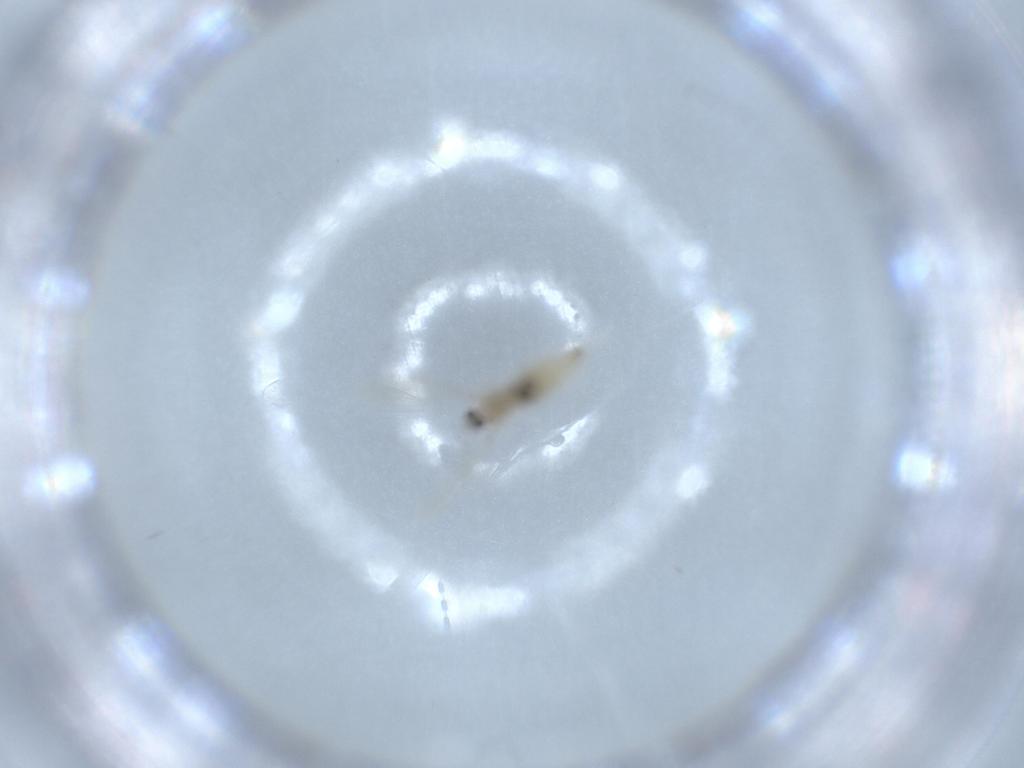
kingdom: Animalia
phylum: Arthropoda
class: Insecta
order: Diptera
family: Cecidomyiidae
